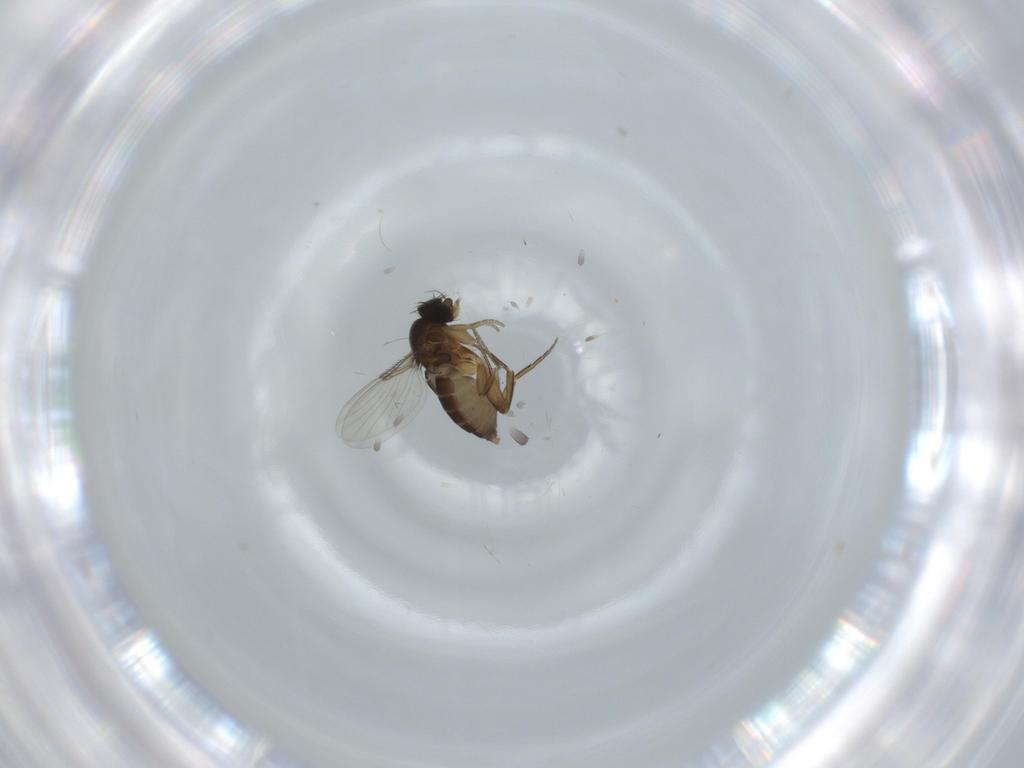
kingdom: Animalia
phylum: Arthropoda
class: Insecta
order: Diptera
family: Phoridae
